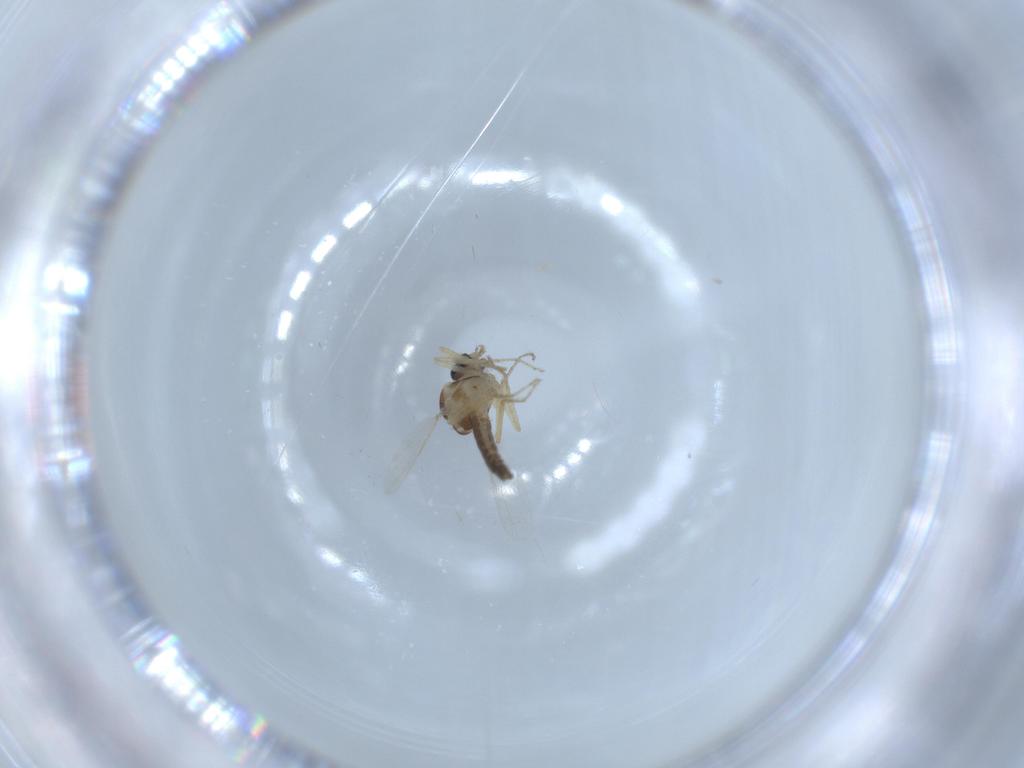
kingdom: Animalia
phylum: Arthropoda
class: Insecta
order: Diptera
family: Ceratopogonidae
